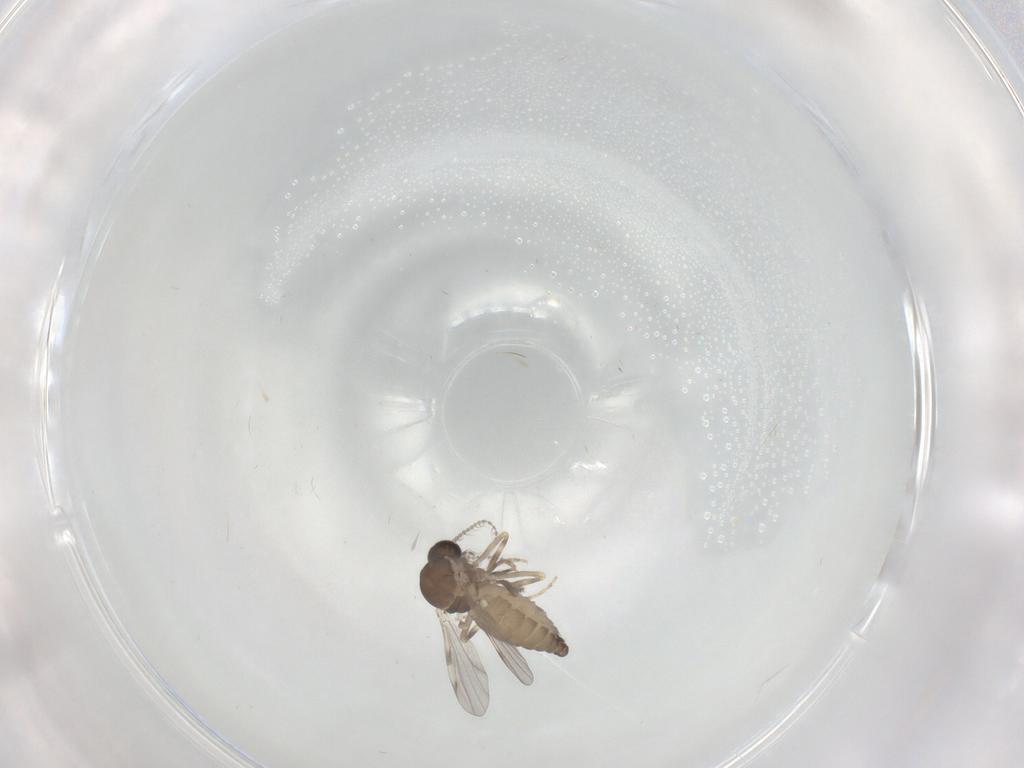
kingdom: Animalia
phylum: Arthropoda
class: Insecta
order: Diptera
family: Ceratopogonidae
